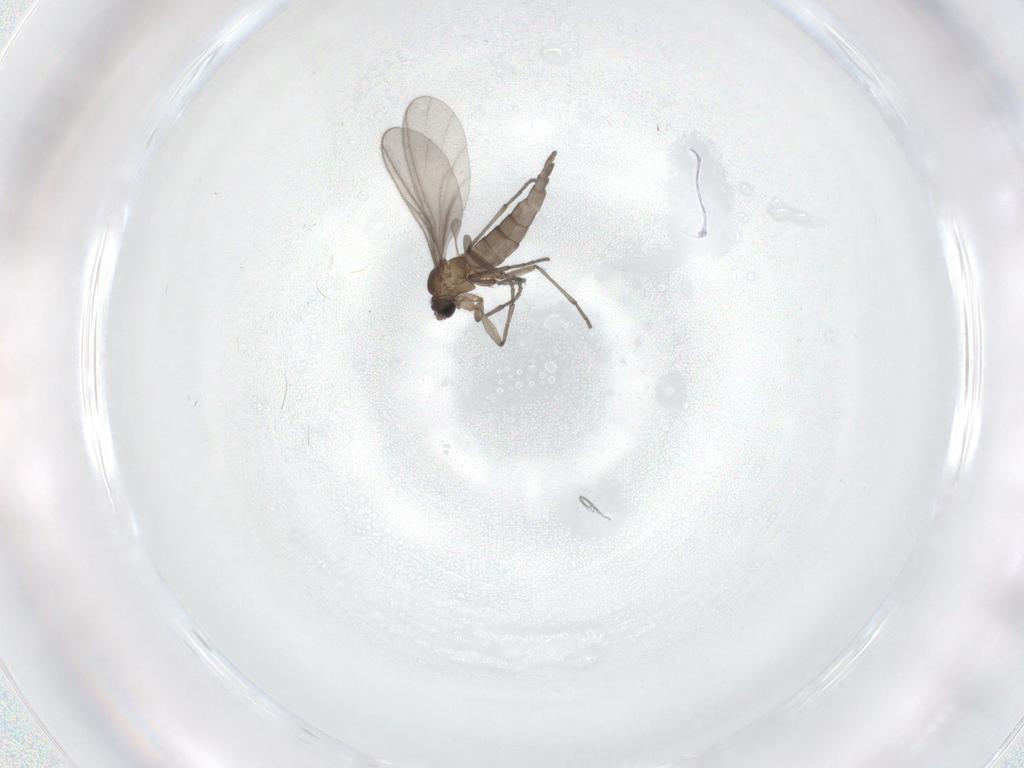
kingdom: Animalia
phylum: Arthropoda
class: Insecta
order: Diptera
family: Sciaridae
